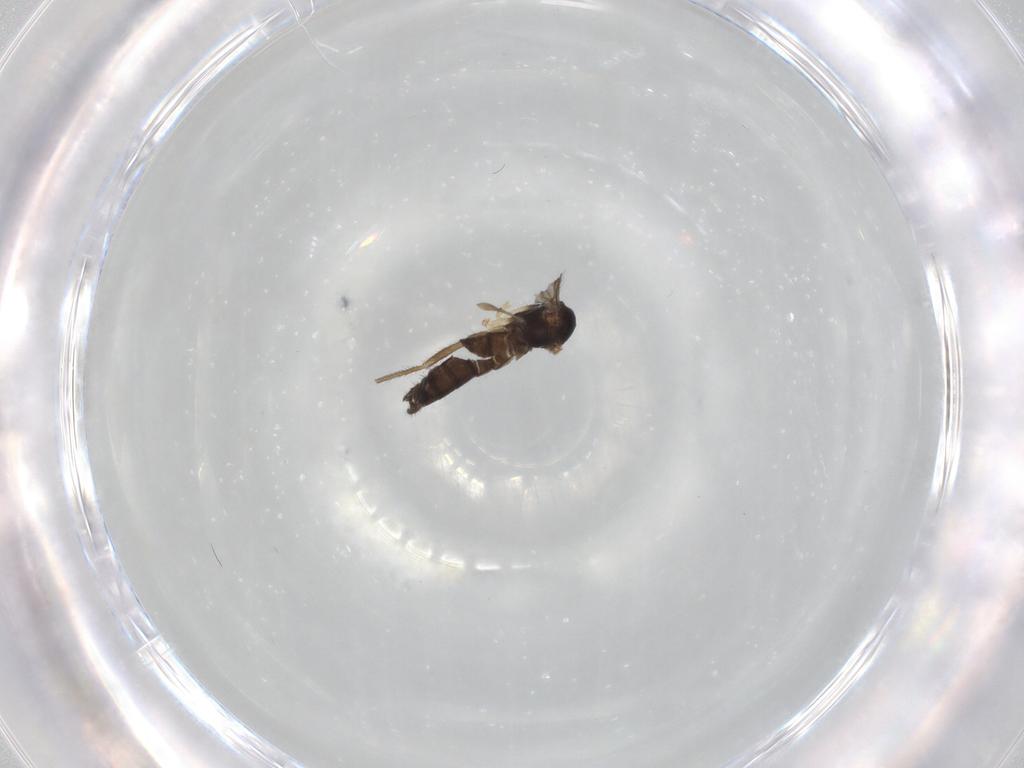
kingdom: Animalia
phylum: Arthropoda
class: Insecta
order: Diptera
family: Sciaridae
